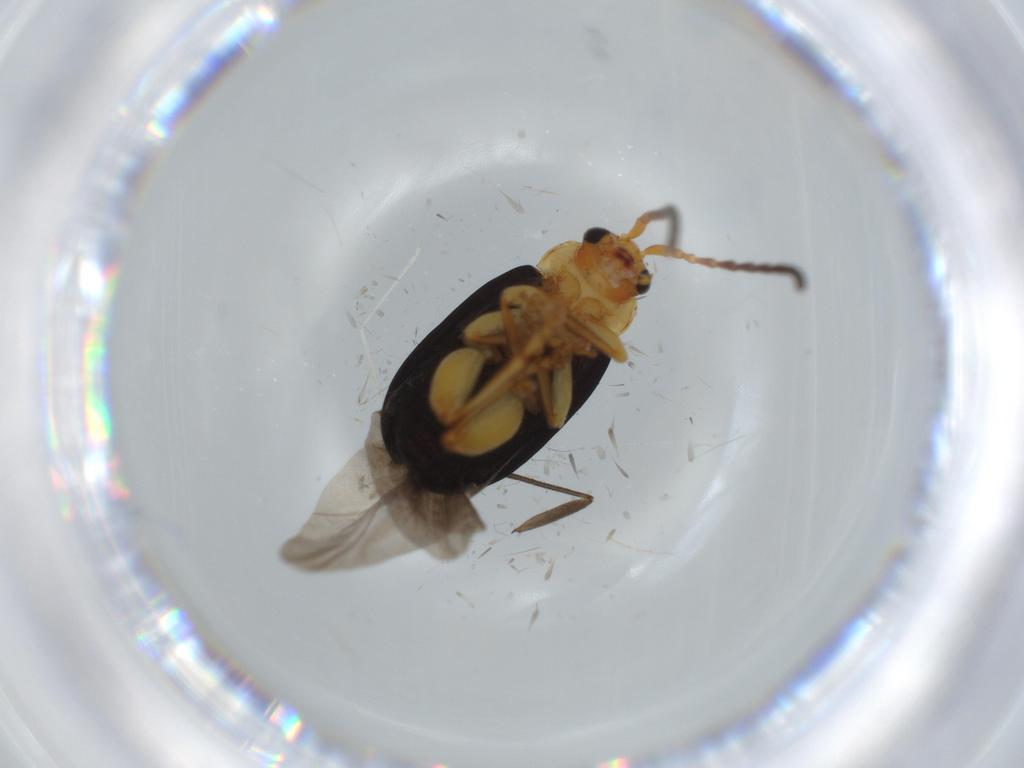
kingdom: Animalia
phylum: Arthropoda
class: Insecta
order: Coleoptera
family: Chrysomelidae
